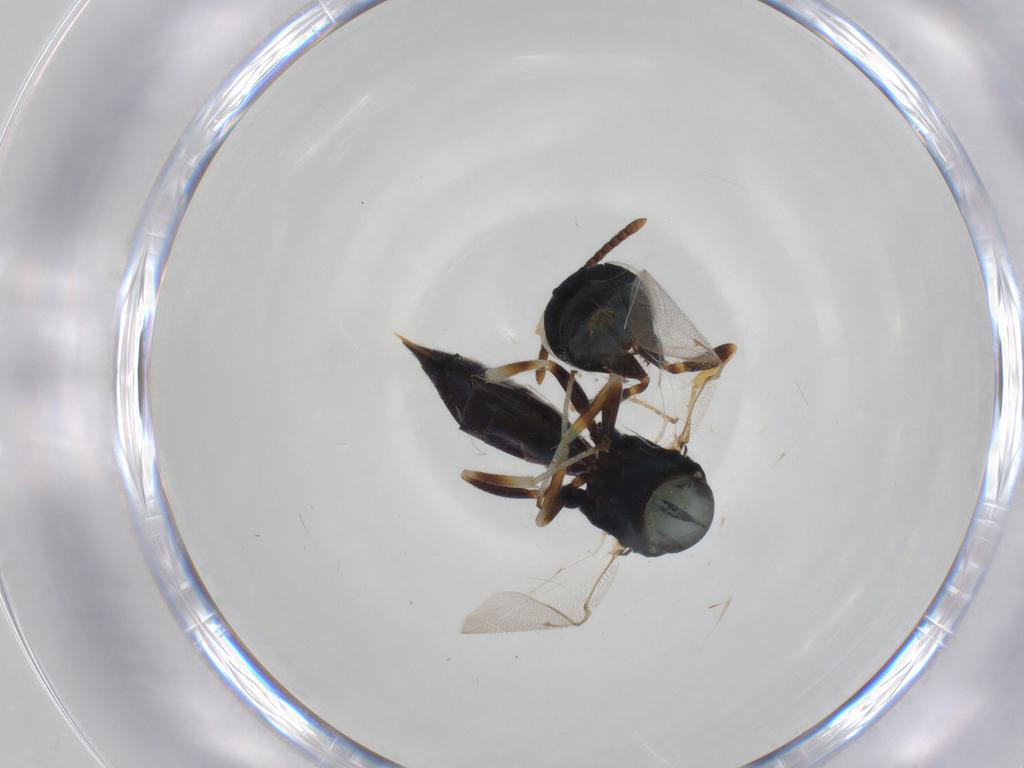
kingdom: Animalia
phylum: Arthropoda
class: Insecta
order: Hymenoptera
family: Pteromalidae
